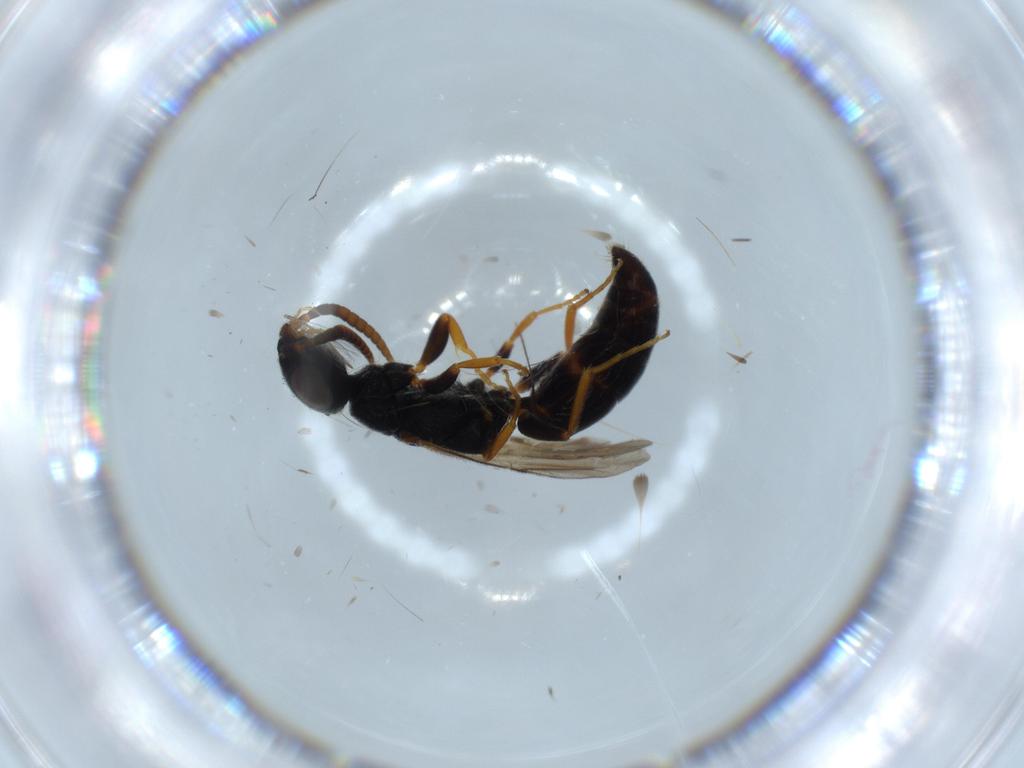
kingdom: Animalia
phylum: Arthropoda
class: Insecta
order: Hymenoptera
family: Bethylidae
